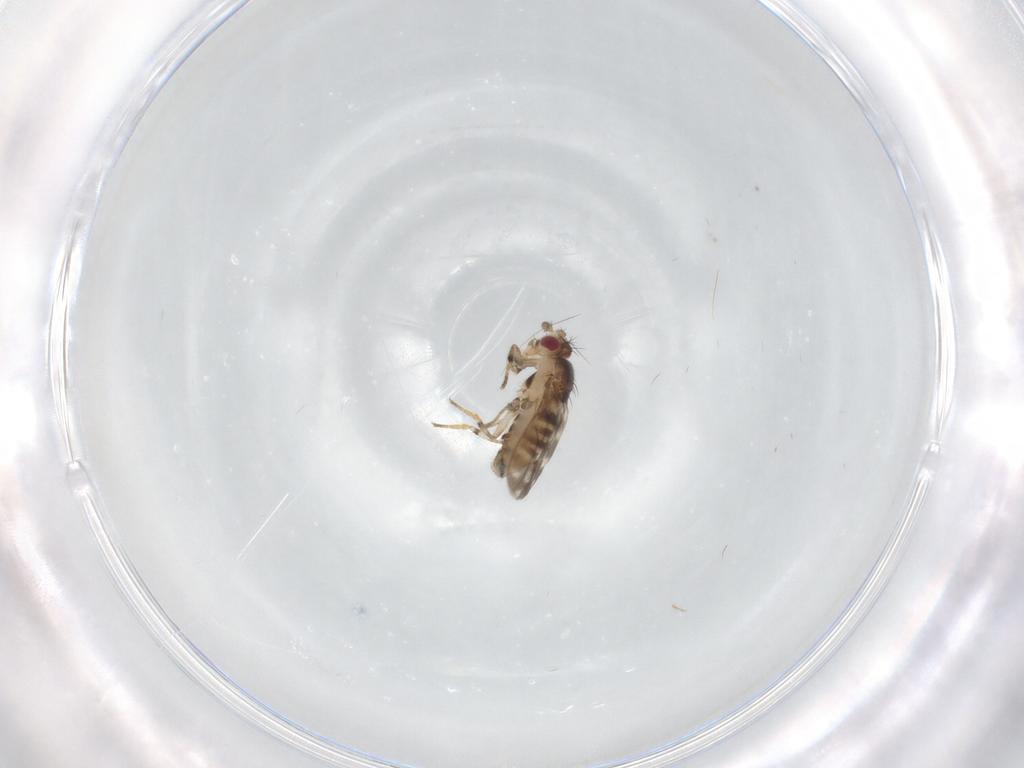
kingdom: Animalia
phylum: Arthropoda
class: Insecta
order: Diptera
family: Sphaeroceridae
